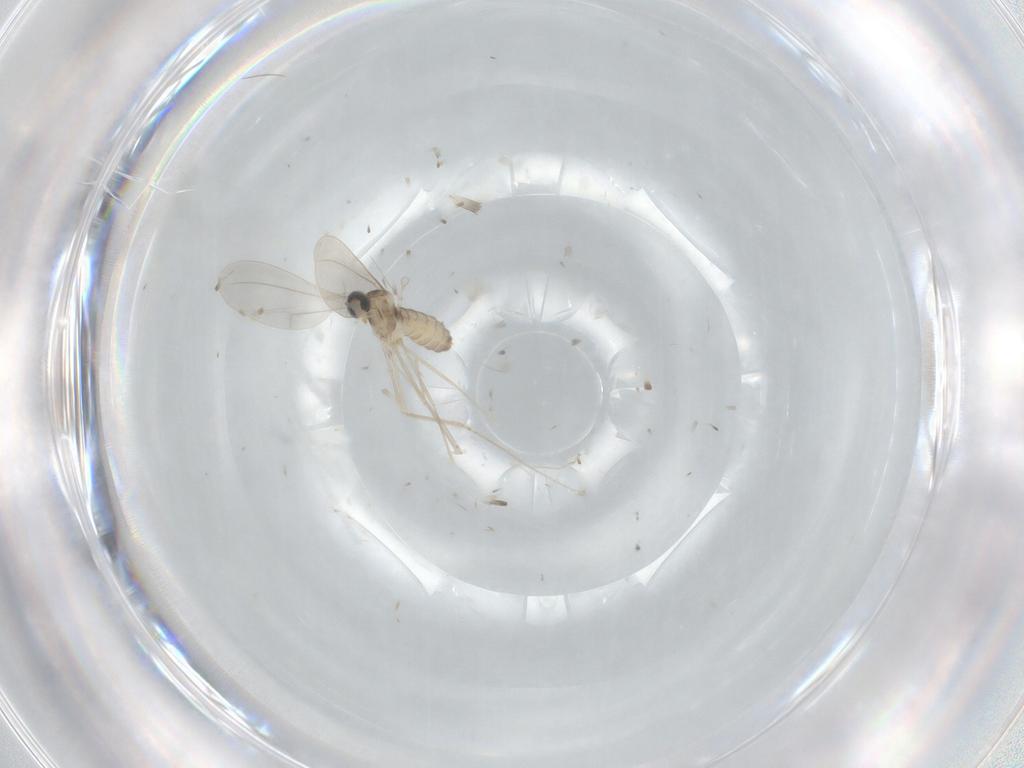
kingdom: Animalia
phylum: Arthropoda
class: Insecta
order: Diptera
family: Cecidomyiidae
